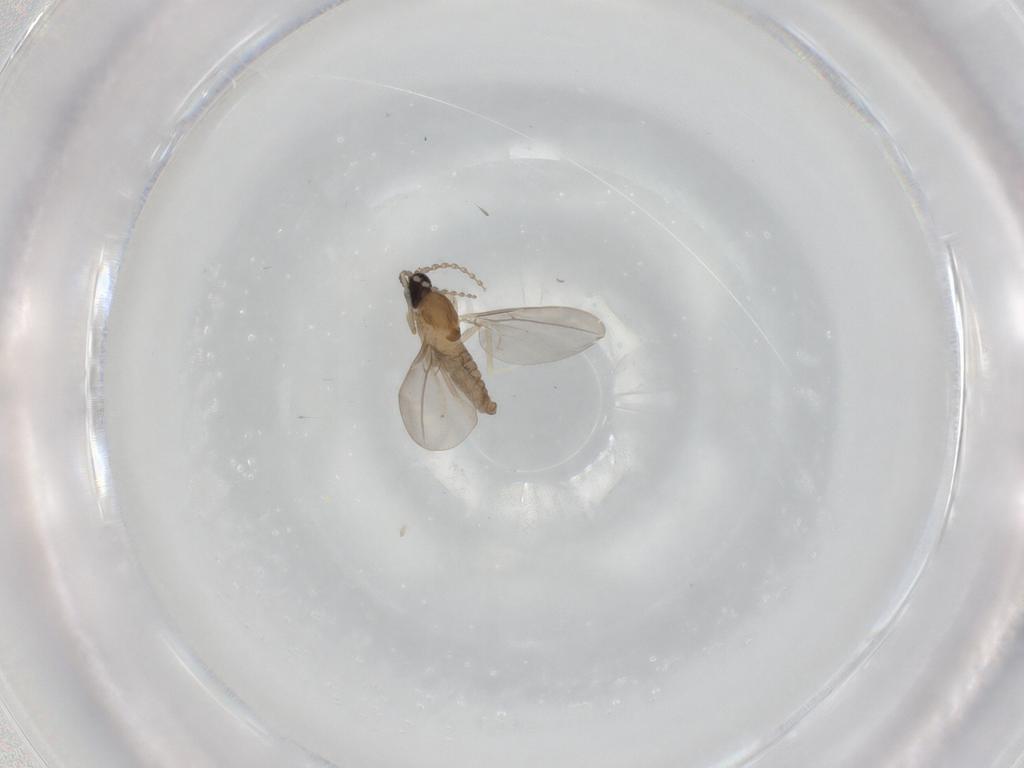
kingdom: Animalia
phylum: Arthropoda
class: Insecta
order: Diptera
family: Cecidomyiidae
